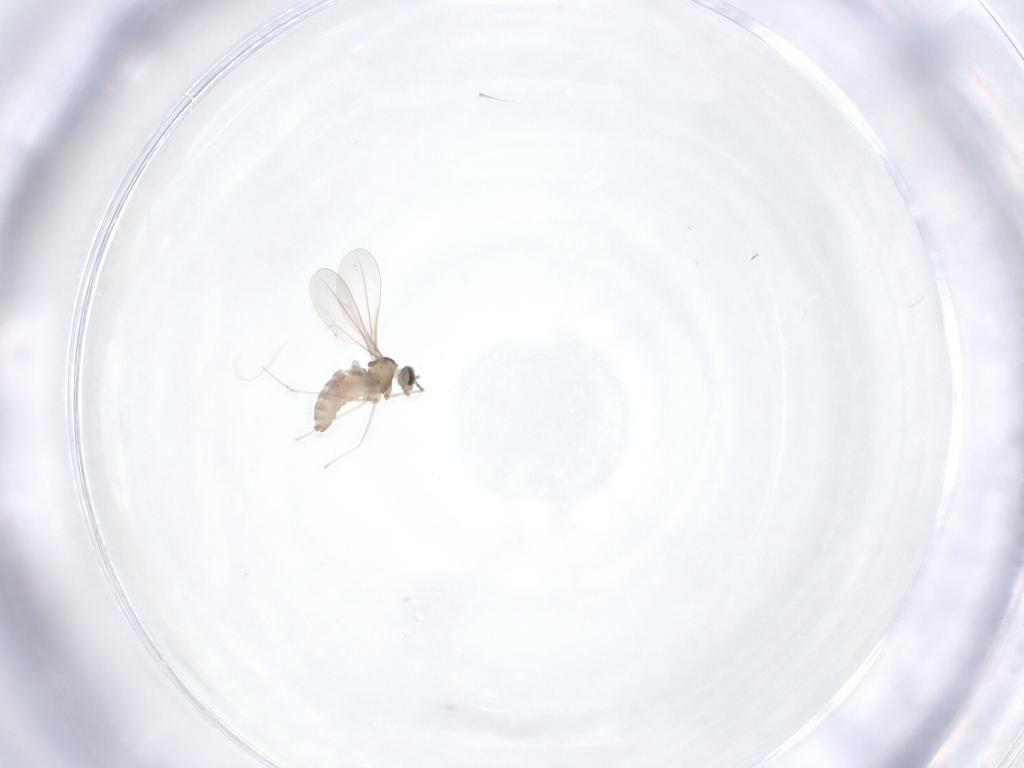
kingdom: Animalia
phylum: Arthropoda
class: Insecta
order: Diptera
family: Cecidomyiidae
